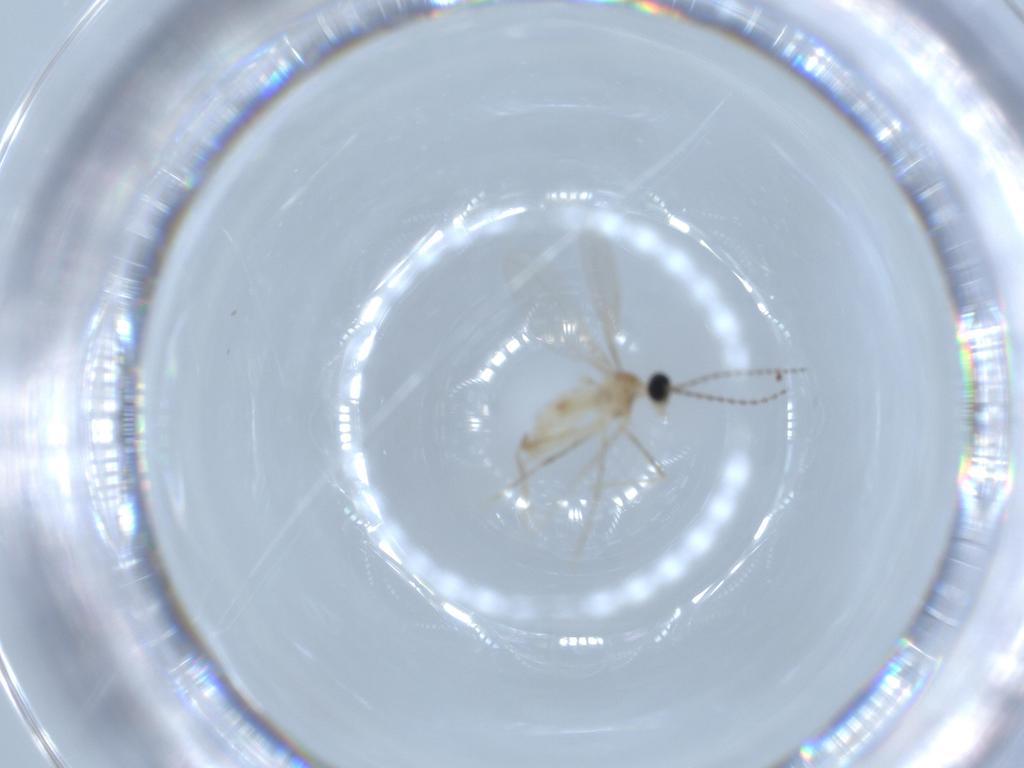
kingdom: Animalia
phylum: Arthropoda
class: Insecta
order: Diptera
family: Cecidomyiidae
